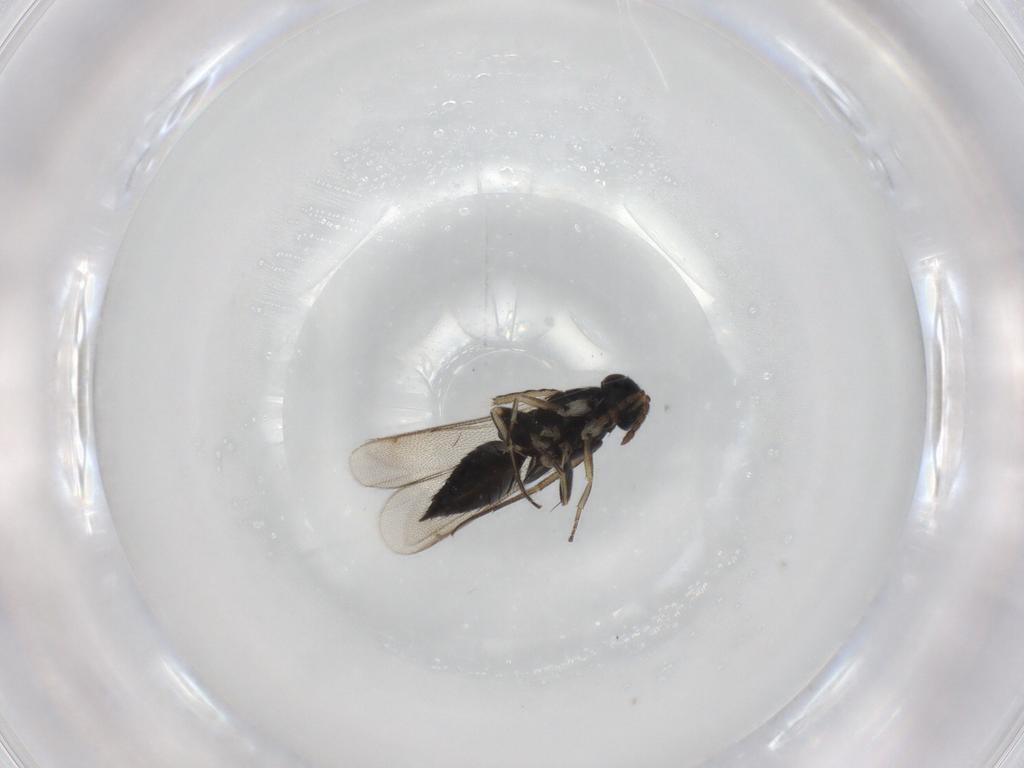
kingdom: Animalia
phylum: Arthropoda
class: Insecta
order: Hymenoptera
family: Eulophidae
